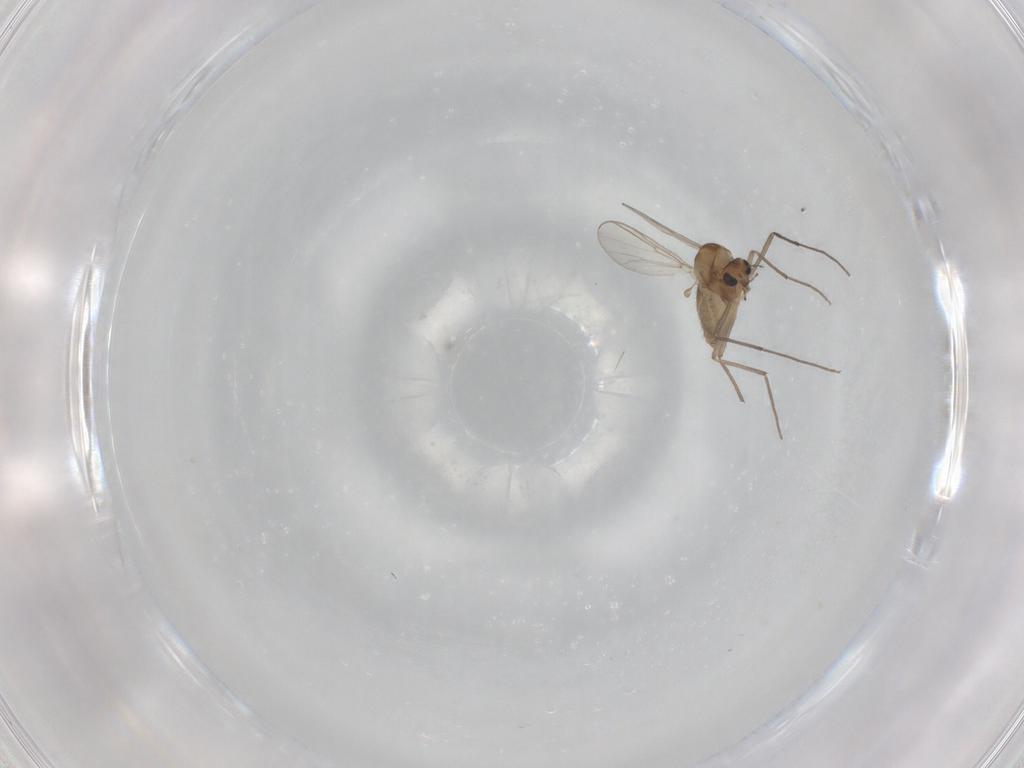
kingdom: Animalia
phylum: Arthropoda
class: Insecta
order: Diptera
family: Chironomidae
